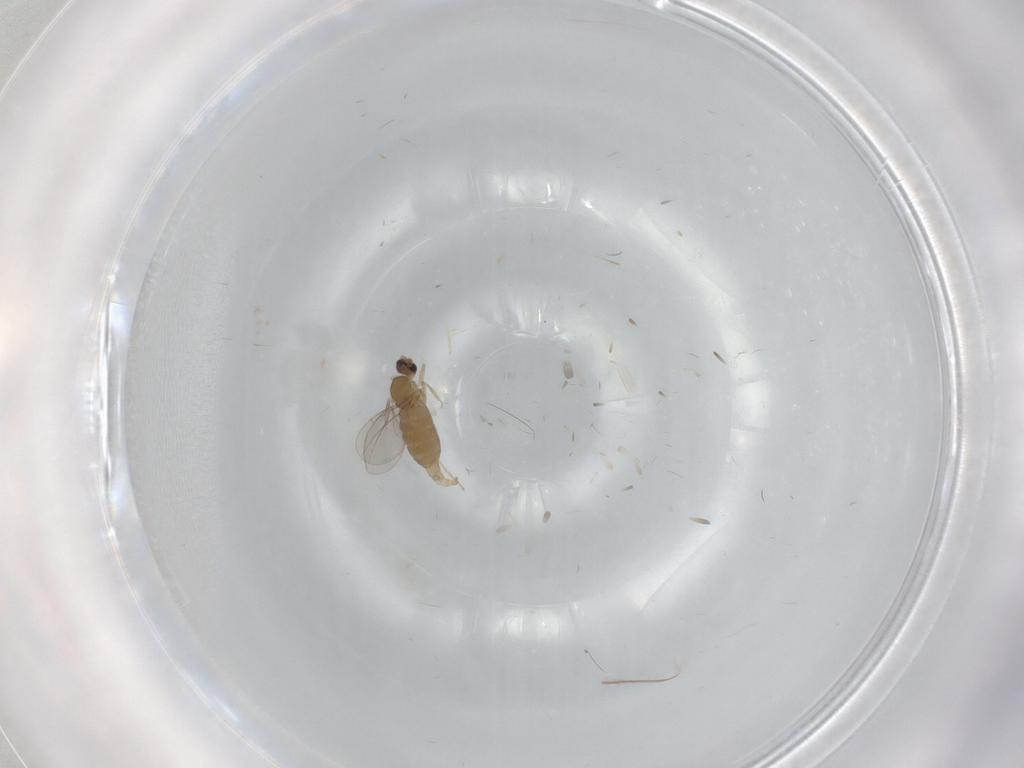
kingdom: Animalia
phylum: Arthropoda
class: Insecta
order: Diptera
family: Cecidomyiidae
